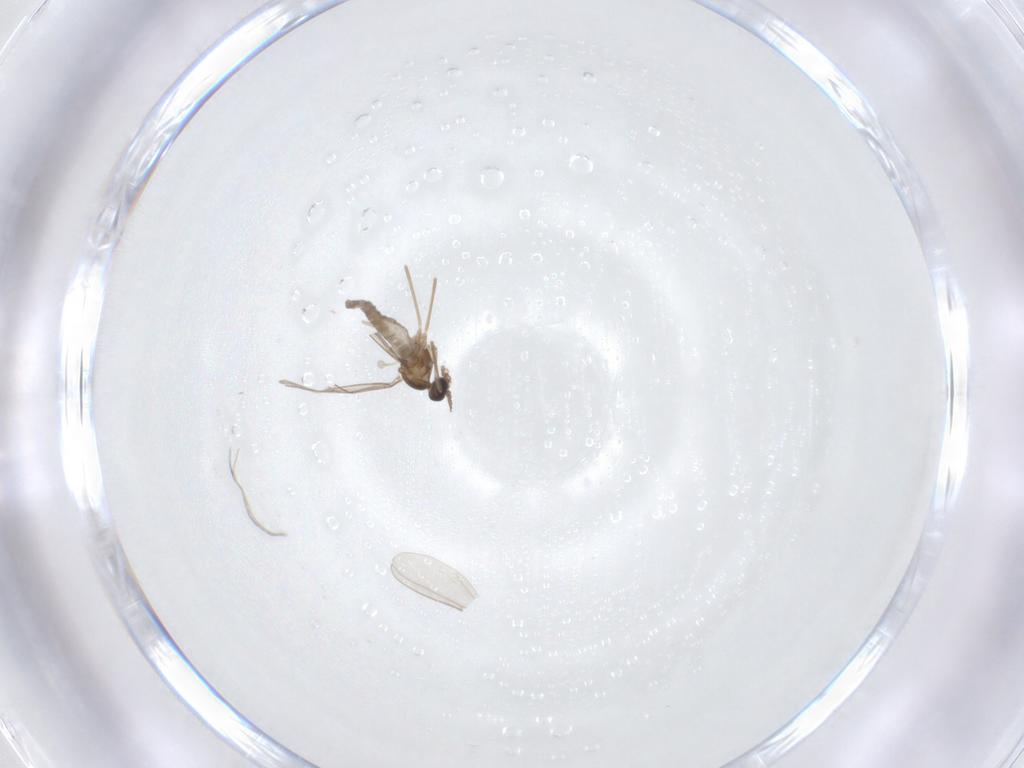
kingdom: Animalia
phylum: Arthropoda
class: Insecta
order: Diptera
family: Cecidomyiidae
